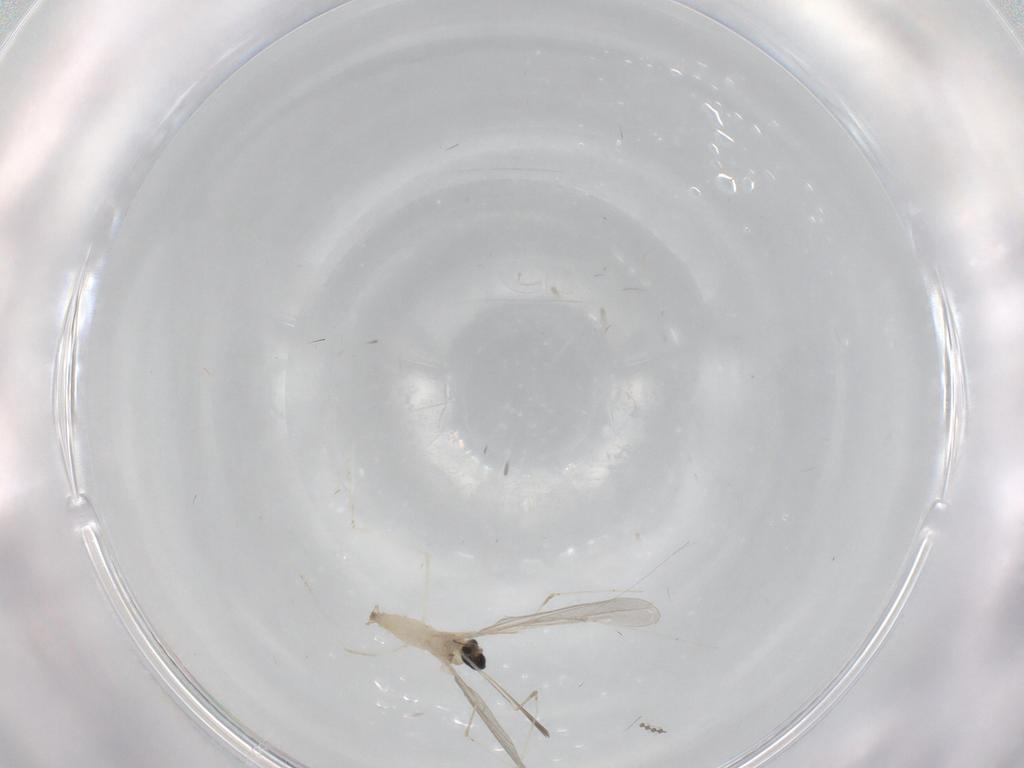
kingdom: Animalia
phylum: Arthropoda
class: Insecta
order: Diptera
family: Cecidomyiidae
